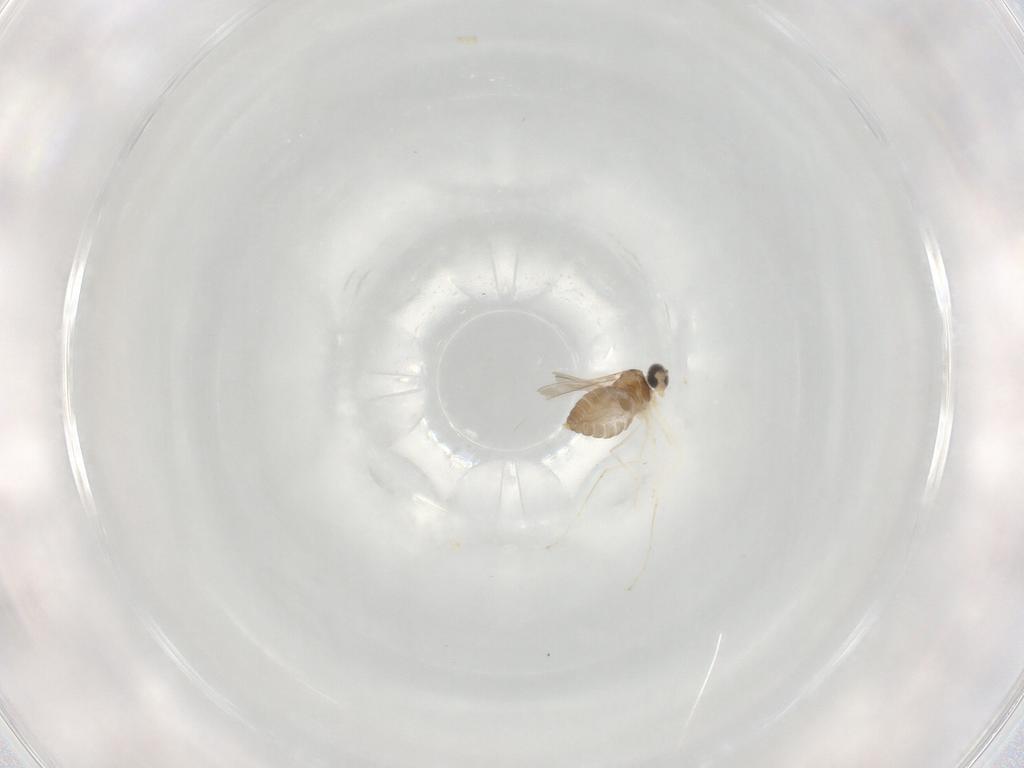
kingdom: Animalia
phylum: Arthropoda
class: Insecta
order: Diptera
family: Cecidomyiidae
